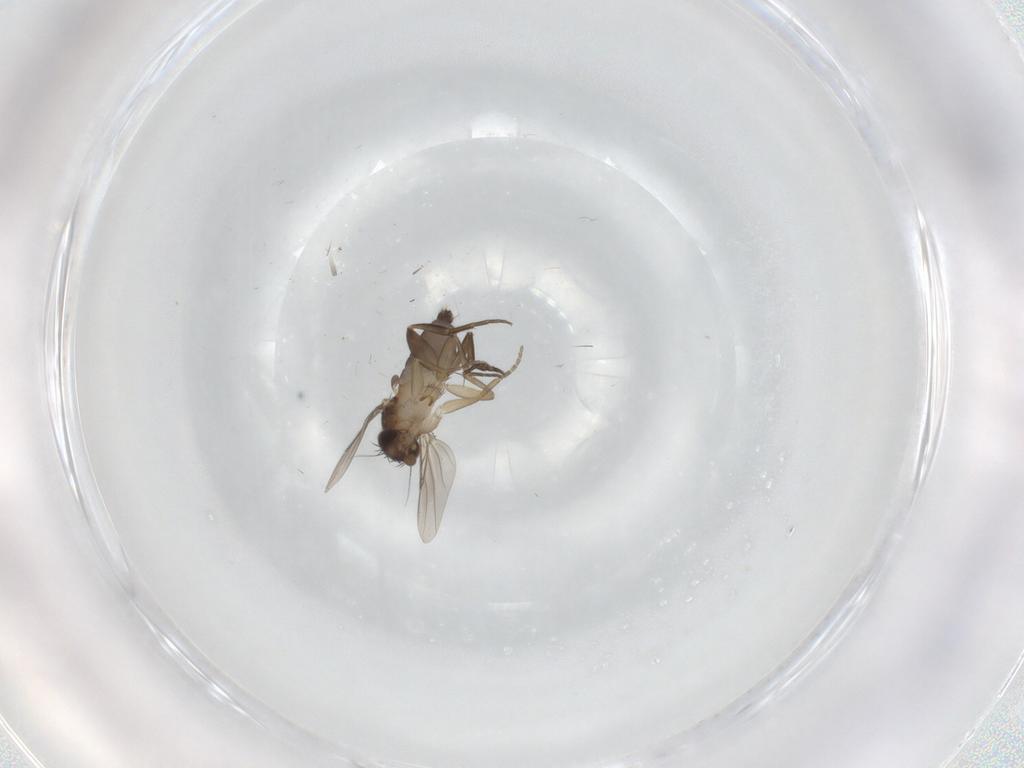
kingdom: Animalia
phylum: Arthropoda
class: Insecta
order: Diptera
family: Phoridae
